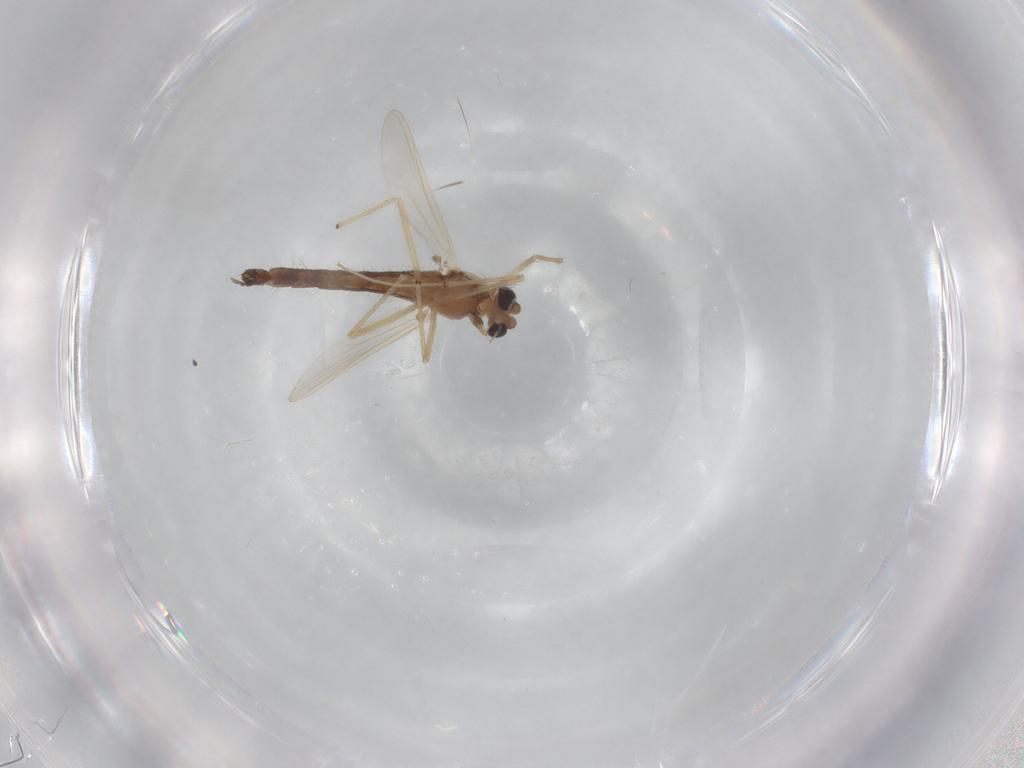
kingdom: Animalia
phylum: Arthropoda
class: Insecta
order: Diptera
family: Chironomidae
